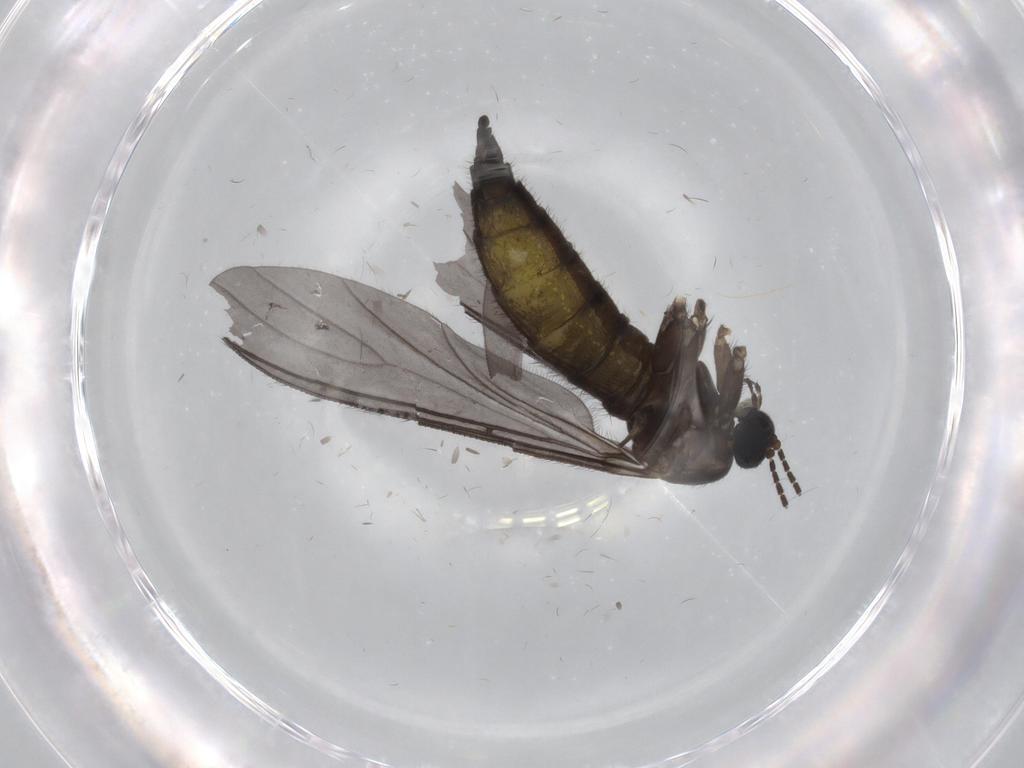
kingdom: Animalia
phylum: Arthropoda
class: Insecta
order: Diptera
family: Sciaridae
